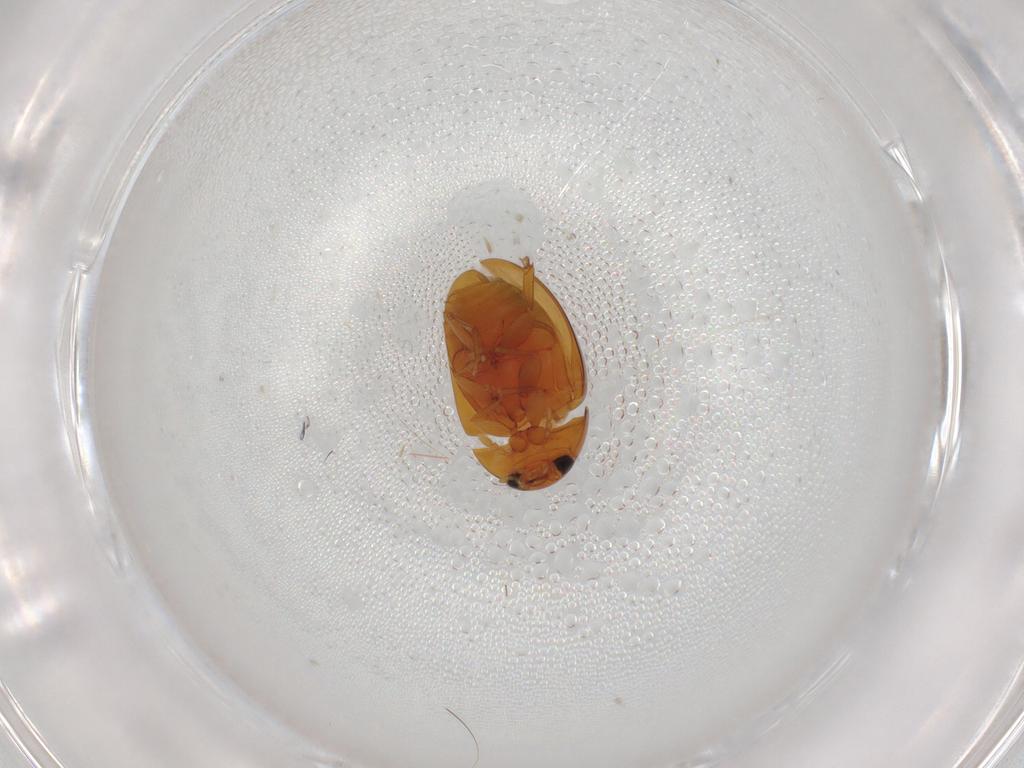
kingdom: Animalia
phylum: Arthropoda
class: Insecta
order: Coleoptera
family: Phalacridae
